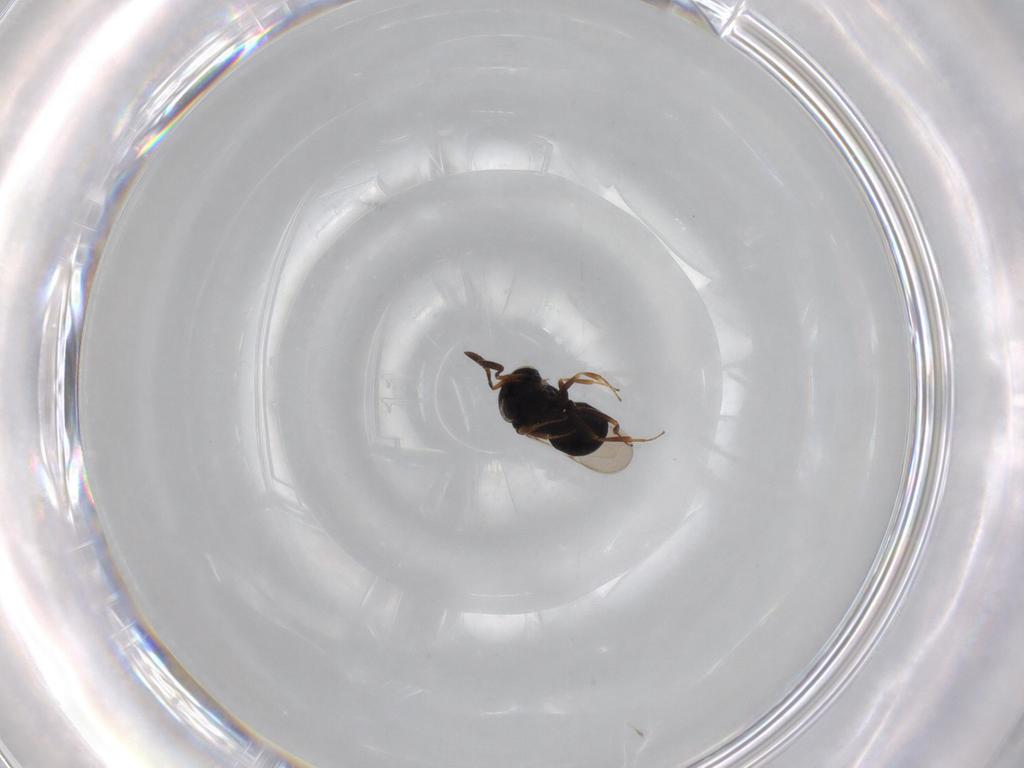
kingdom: Animalia
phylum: Arthropoda
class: Insecta
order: Hymenoptera
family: Scelionidae
